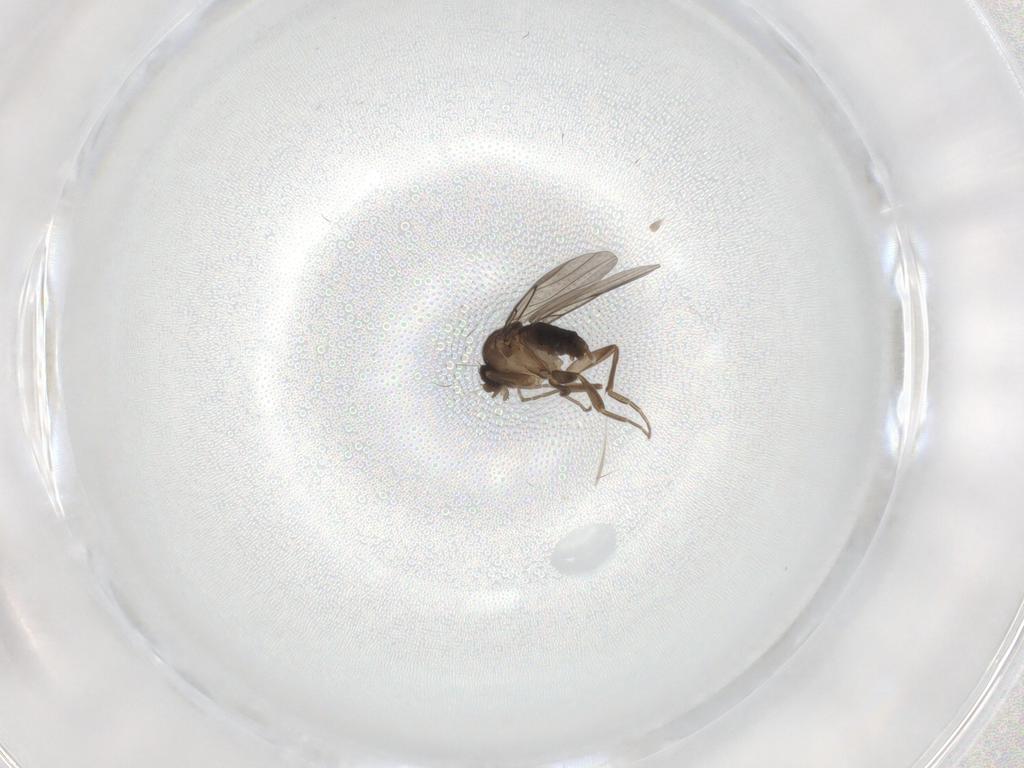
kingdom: Animalia
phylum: Arthropoda
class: Insecta
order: Diptera
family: Phoridae
